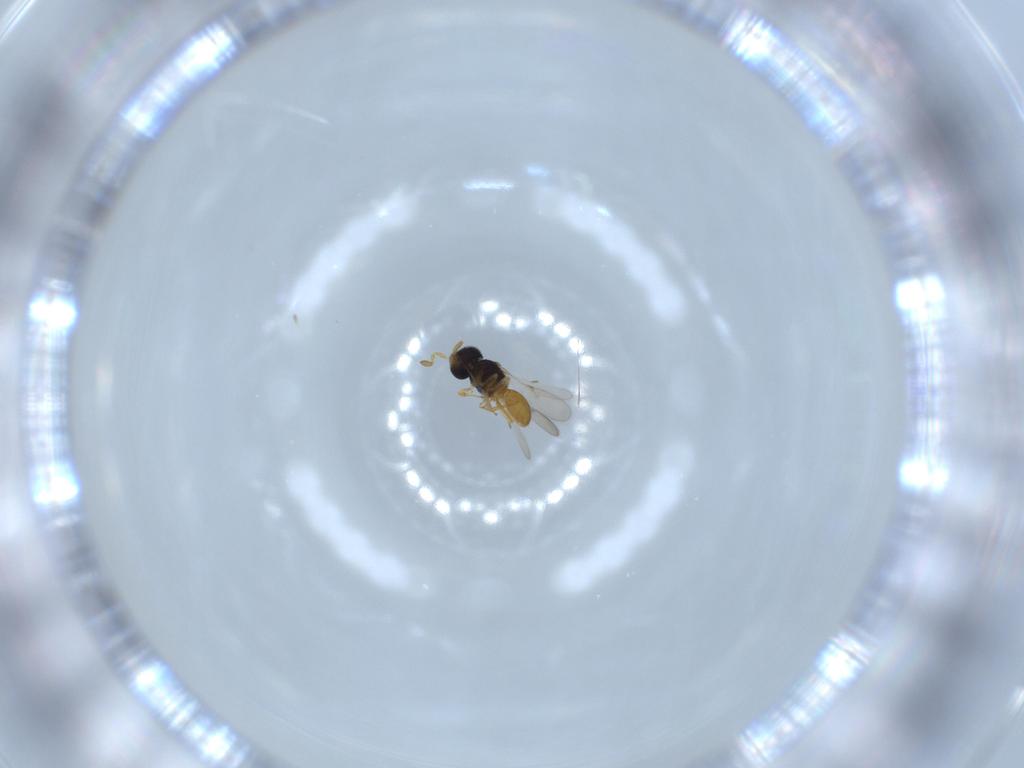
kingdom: Animalia
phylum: Arthropoda
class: Insecta
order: Hymenoptera
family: Scelionidae
